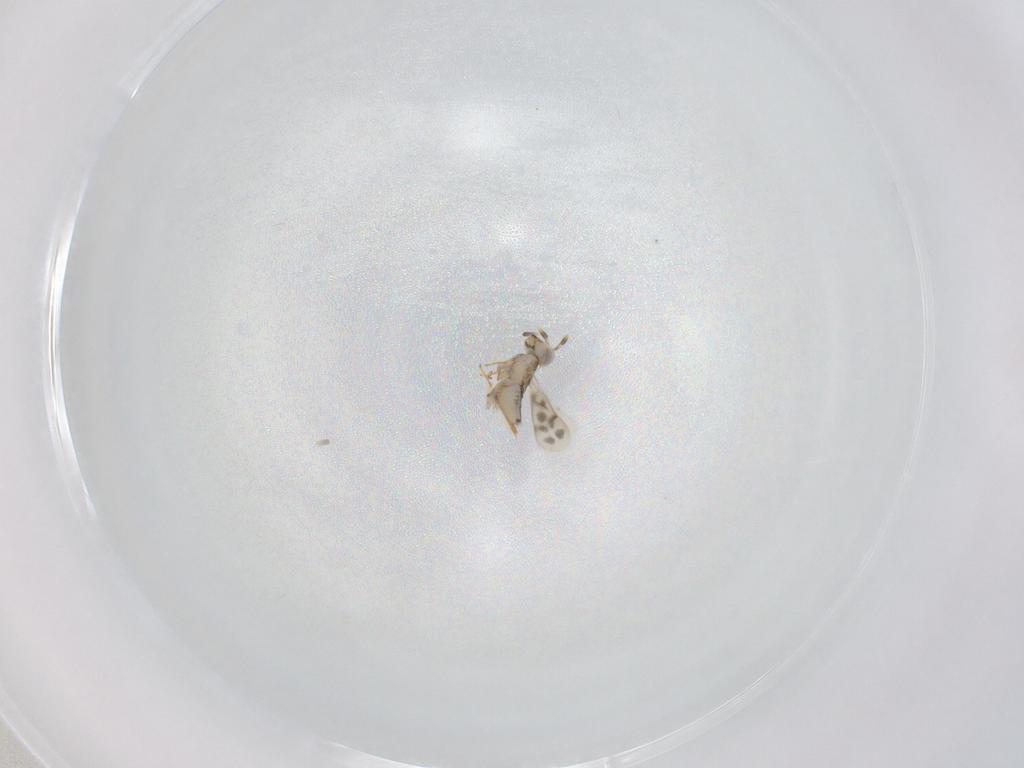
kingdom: Animalia
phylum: Arthropoda
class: Insecta
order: Hymenoptera
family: Aphelinidae
